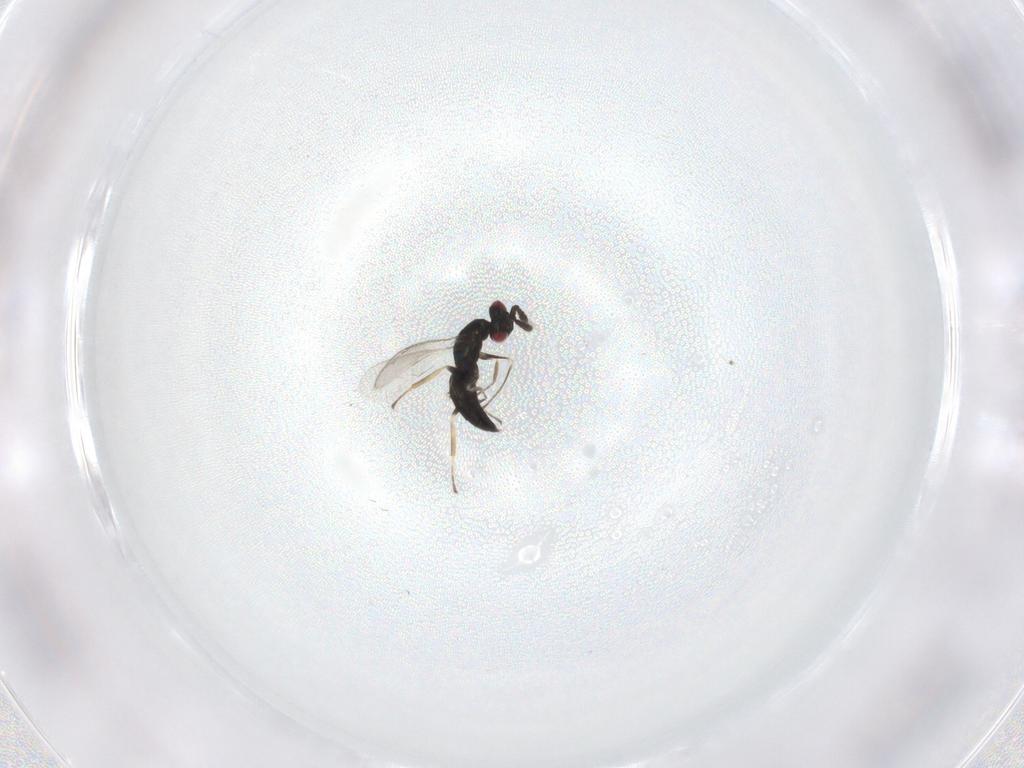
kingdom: Animalia
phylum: Arthropoda
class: Insecta
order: Hymenoptera
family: Eulophidae
